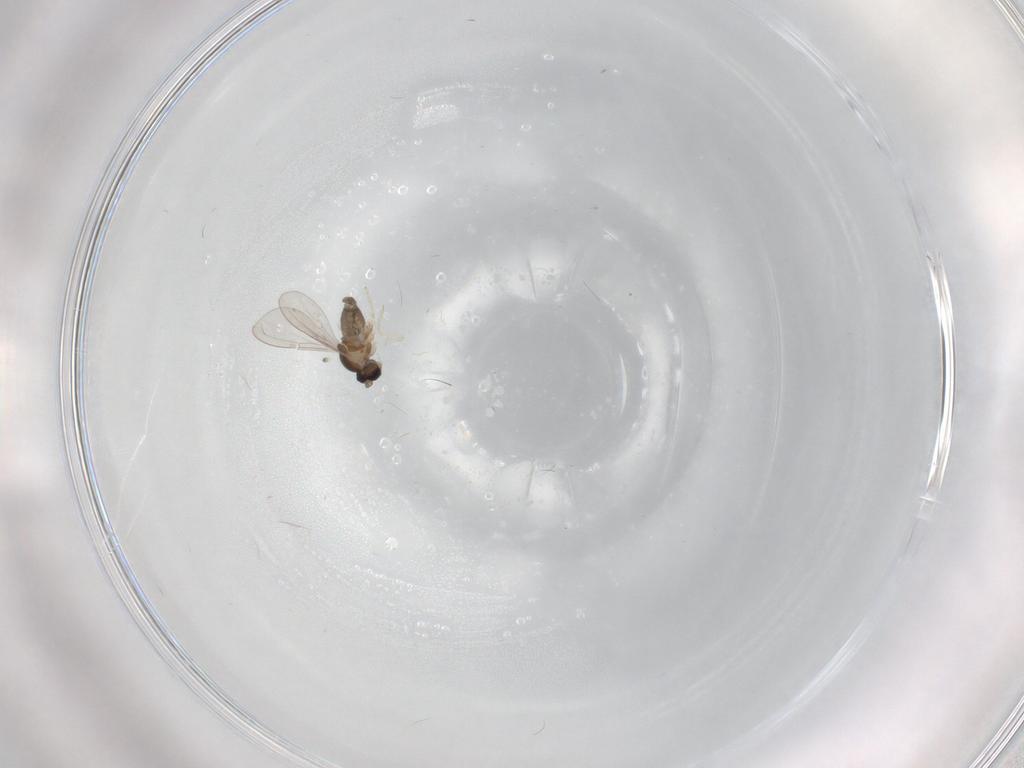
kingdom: Animalia
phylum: Arthropoda
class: Insecta
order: Diptera
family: Cecidomyiidae
